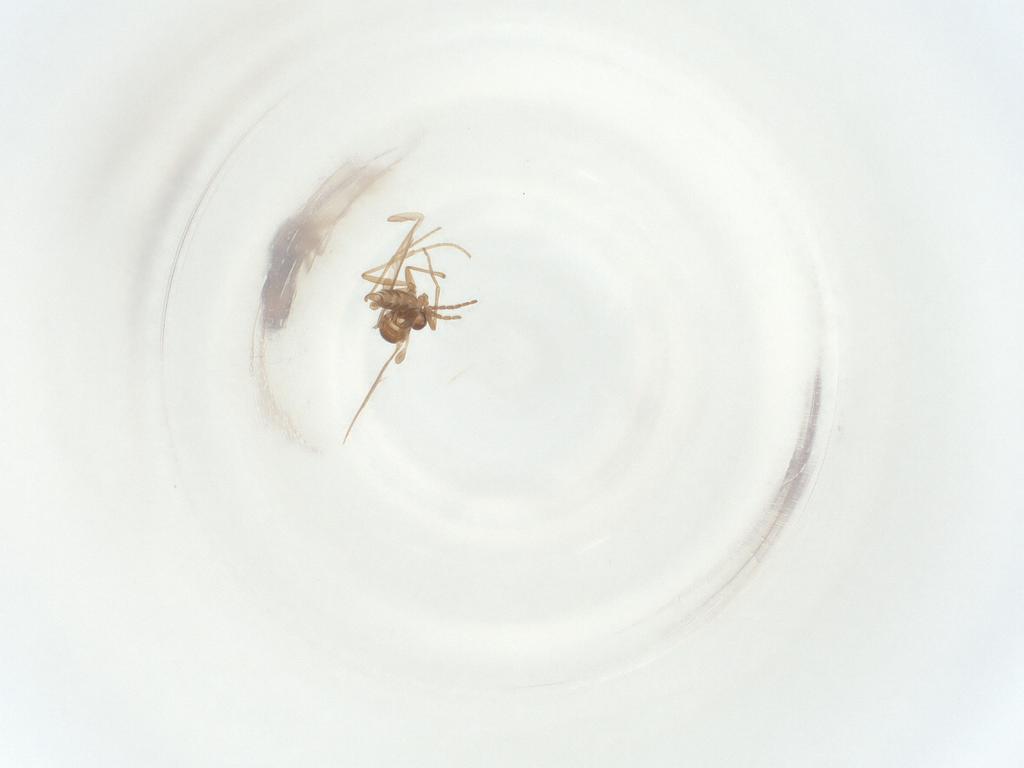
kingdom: Animalia
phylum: Arthropoda
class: Insecta
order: Diptera
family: Sciaridae
